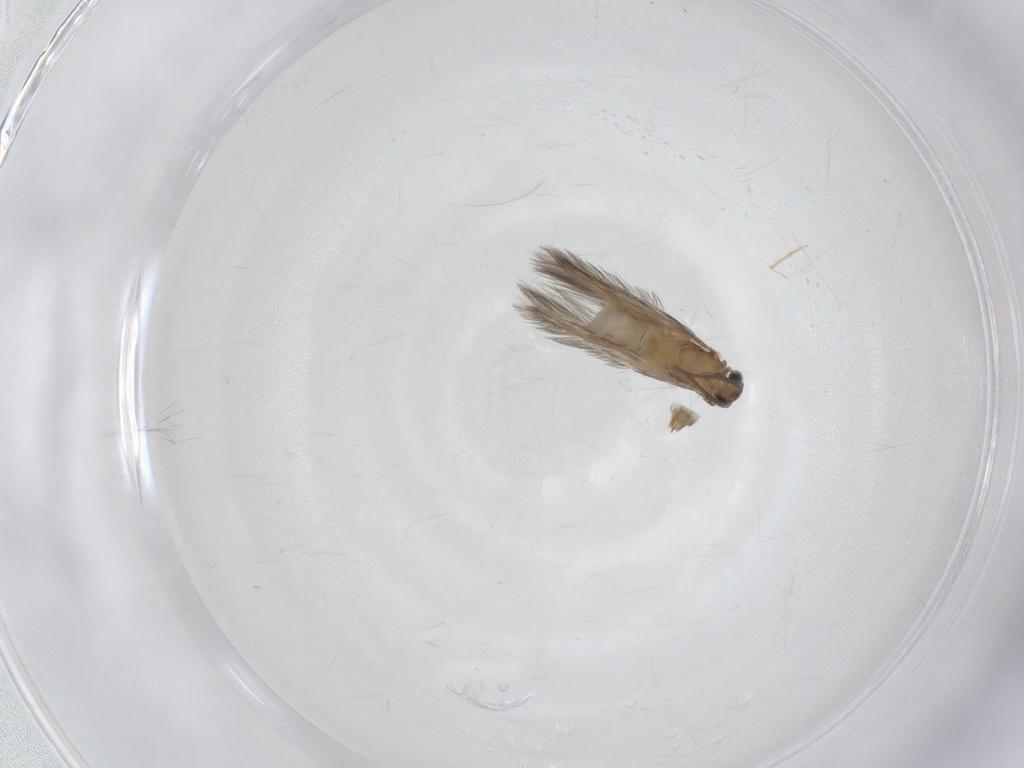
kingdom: Animalia
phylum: Arthropoda
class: Insecta
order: Trichoptera
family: Hydroptilidae
